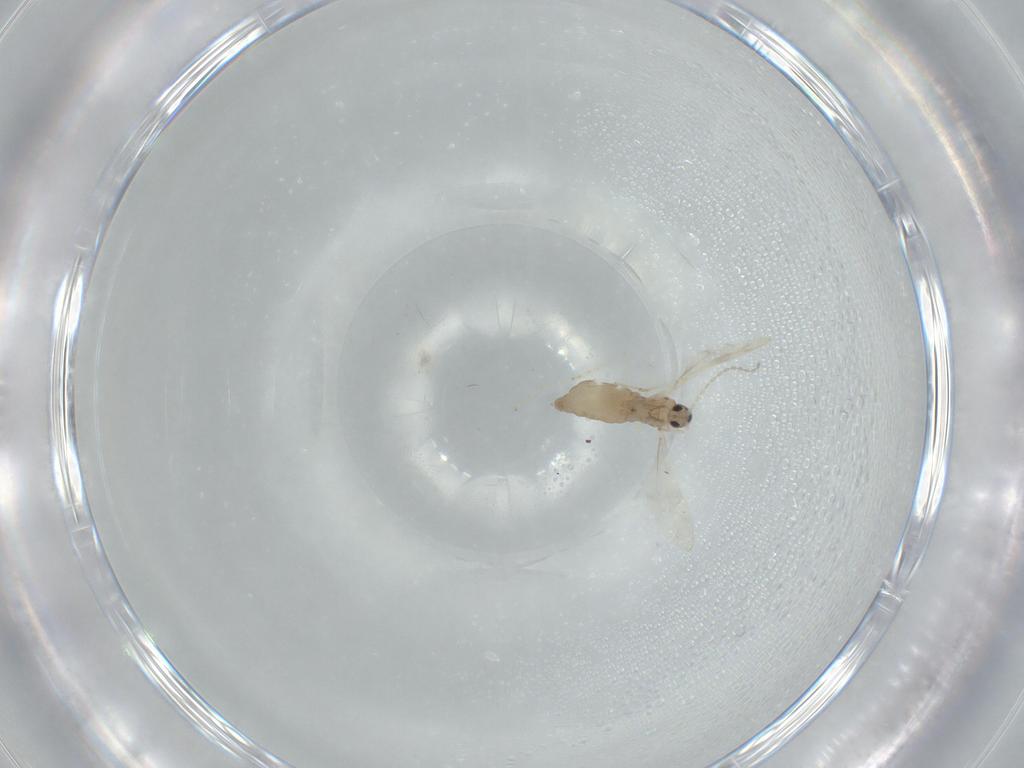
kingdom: Animalia
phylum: Arthropoda
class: Insecta
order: Diptera
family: Cecidomyiidae
